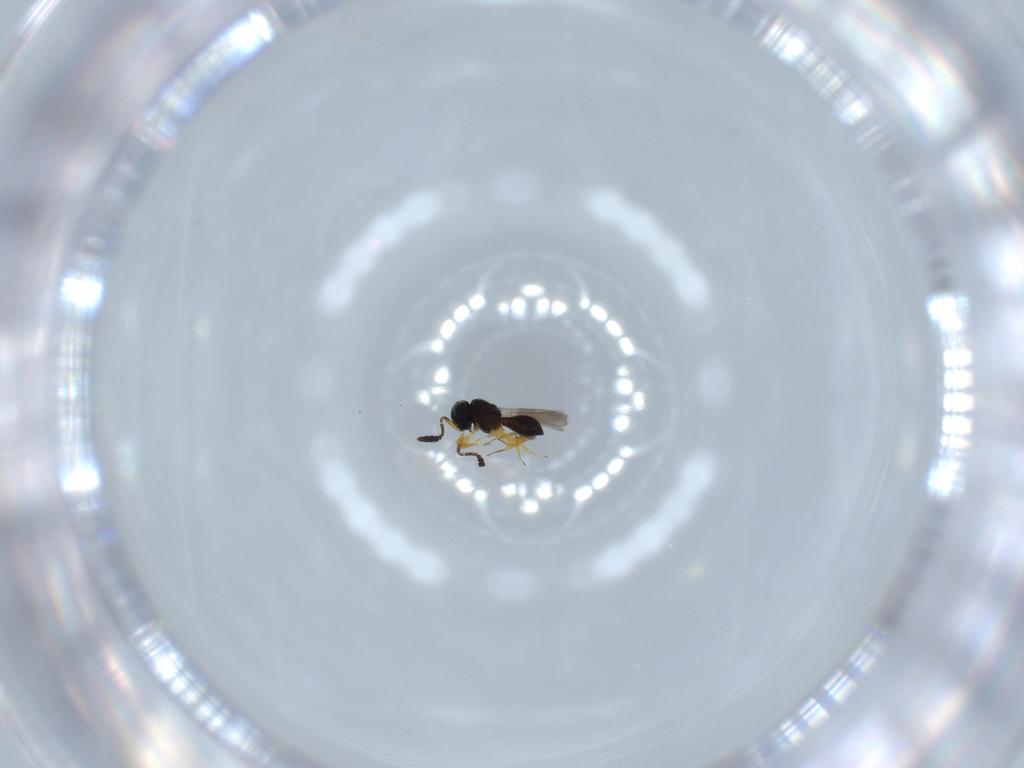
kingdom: Animalia
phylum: Arthropoda
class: Insecta
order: Hymenoptera
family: Scelionidae
